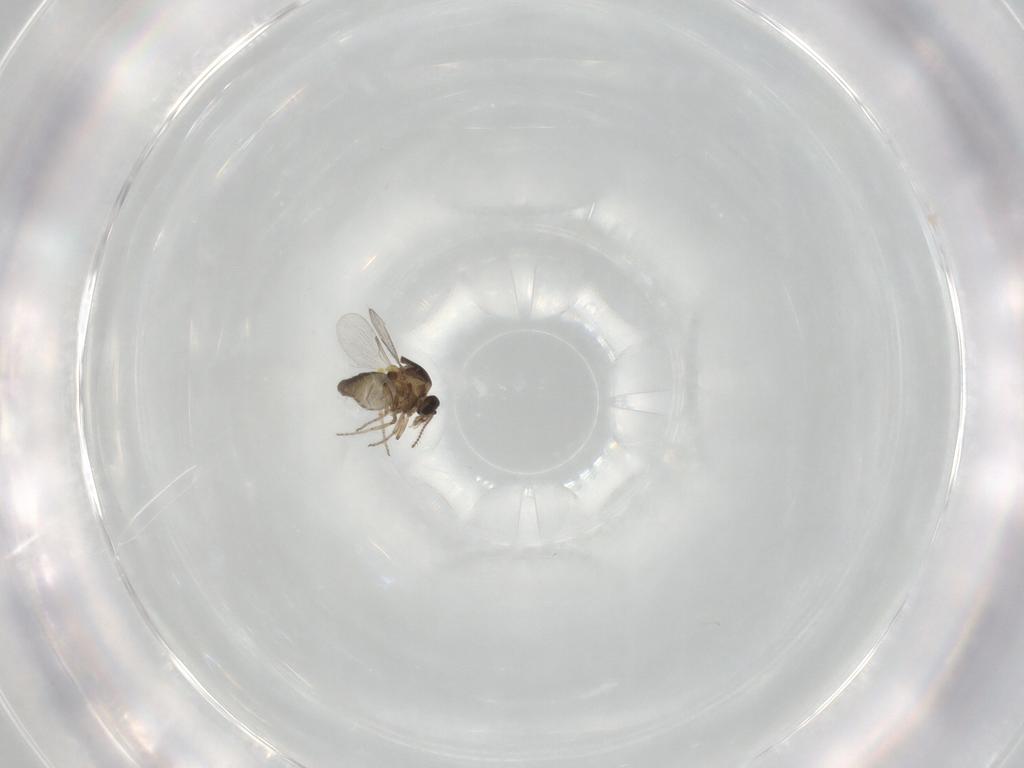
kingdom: Animalia
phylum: Arthropoda
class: Insecta
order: Diptera
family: Ceratopogonidae
